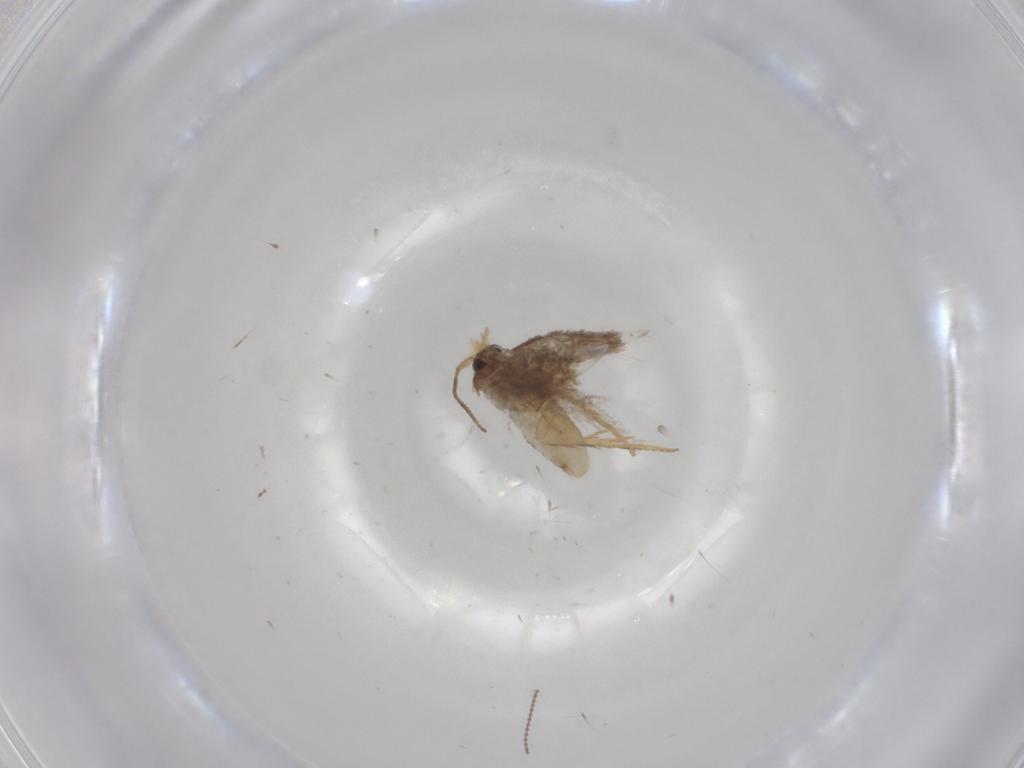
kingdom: Animalia
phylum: Arthropoda
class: Insecta
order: Lepidoptera
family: Nepticulidae
